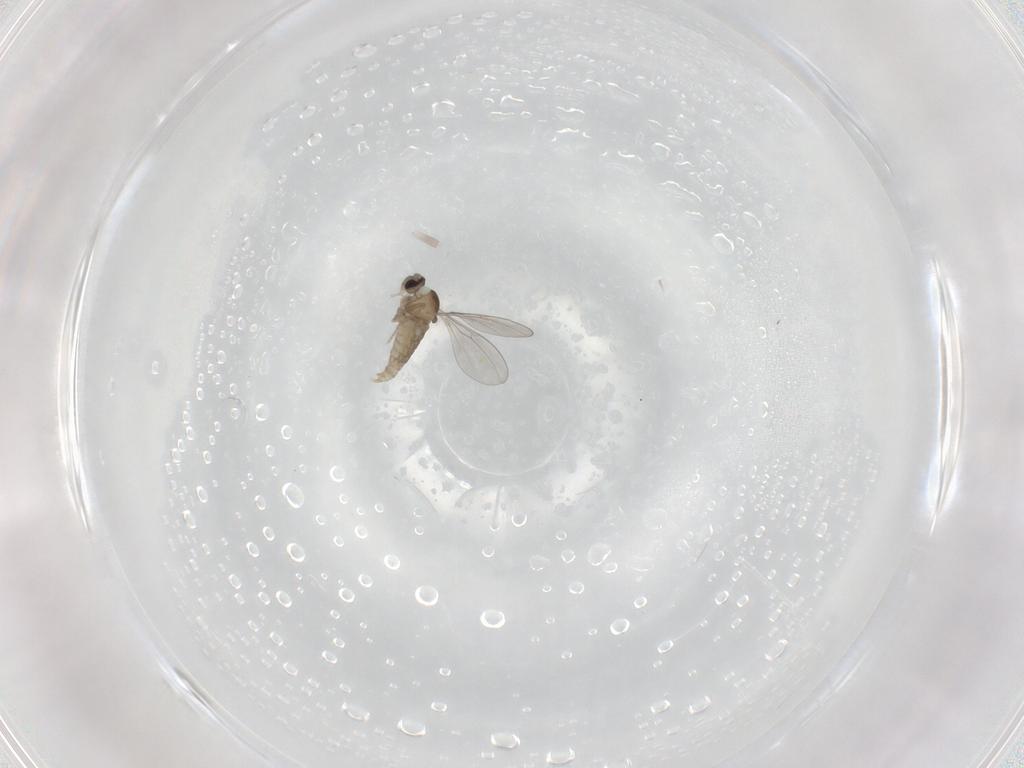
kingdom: Animalia
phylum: Arthropoda
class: Insecta
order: Diptera
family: Cecidomyiidae
